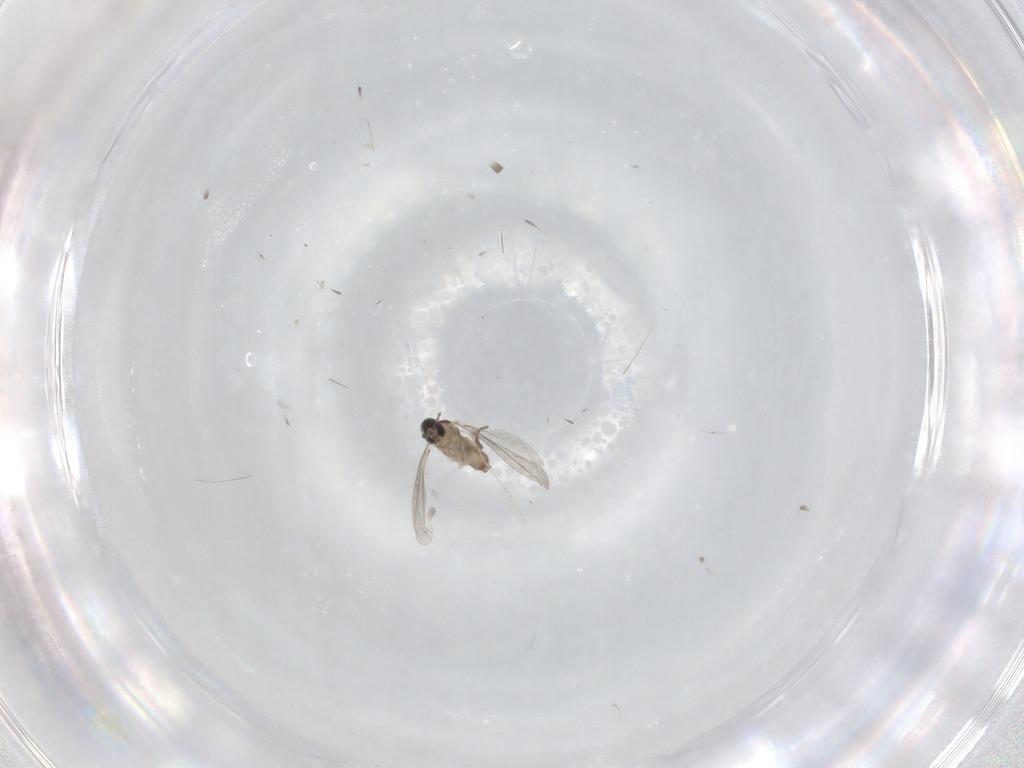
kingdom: Animalia
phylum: Arthropoda
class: Insecta
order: Diptera
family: Cecidomyiidae
